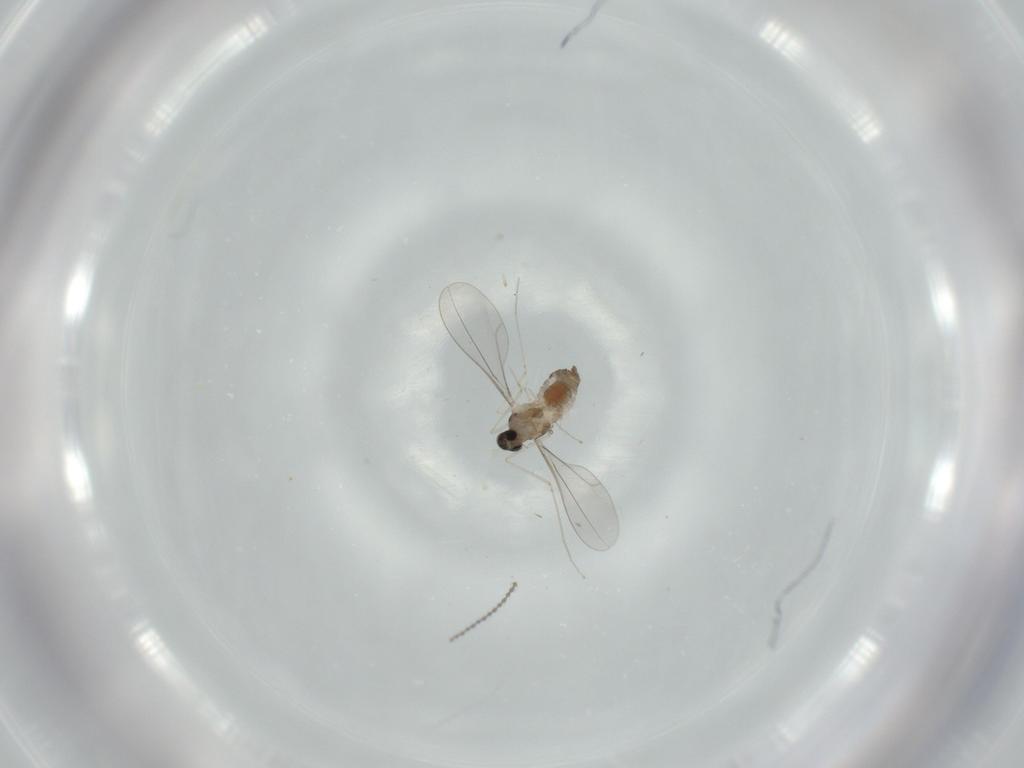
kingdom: Animalia
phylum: Arthropoda
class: Insecta
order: Diptera
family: Cecidomyiidae
